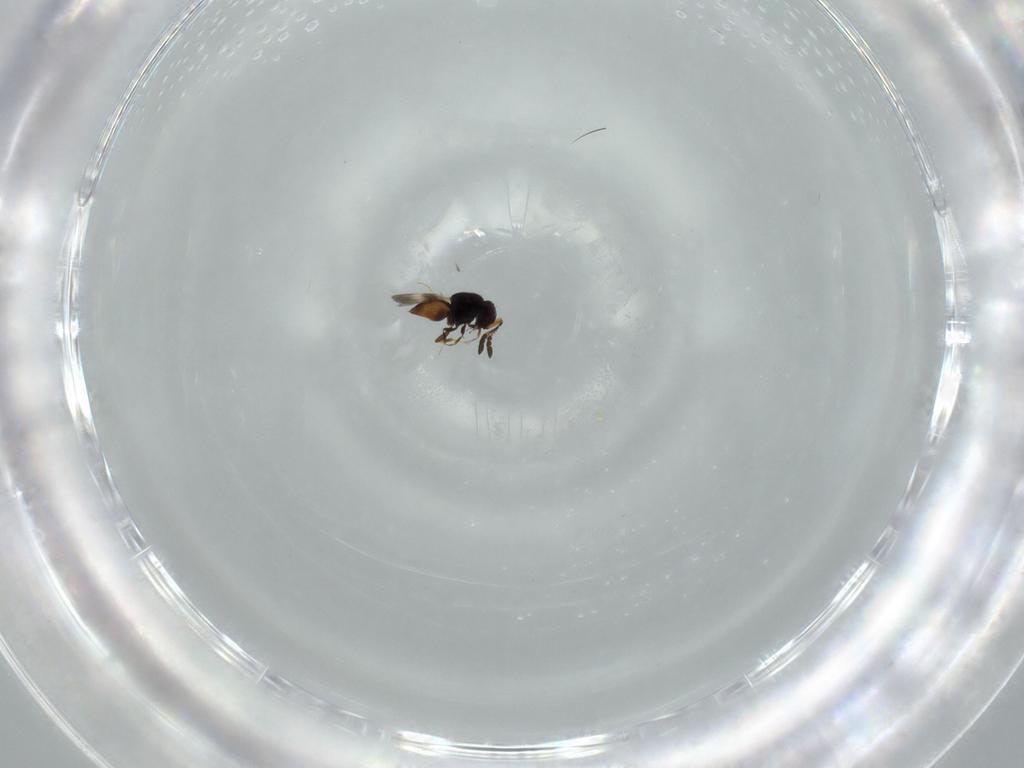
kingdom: Animalia
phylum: Arthropoda
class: Insecta
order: Hymenoptera
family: Ceraphronidae
